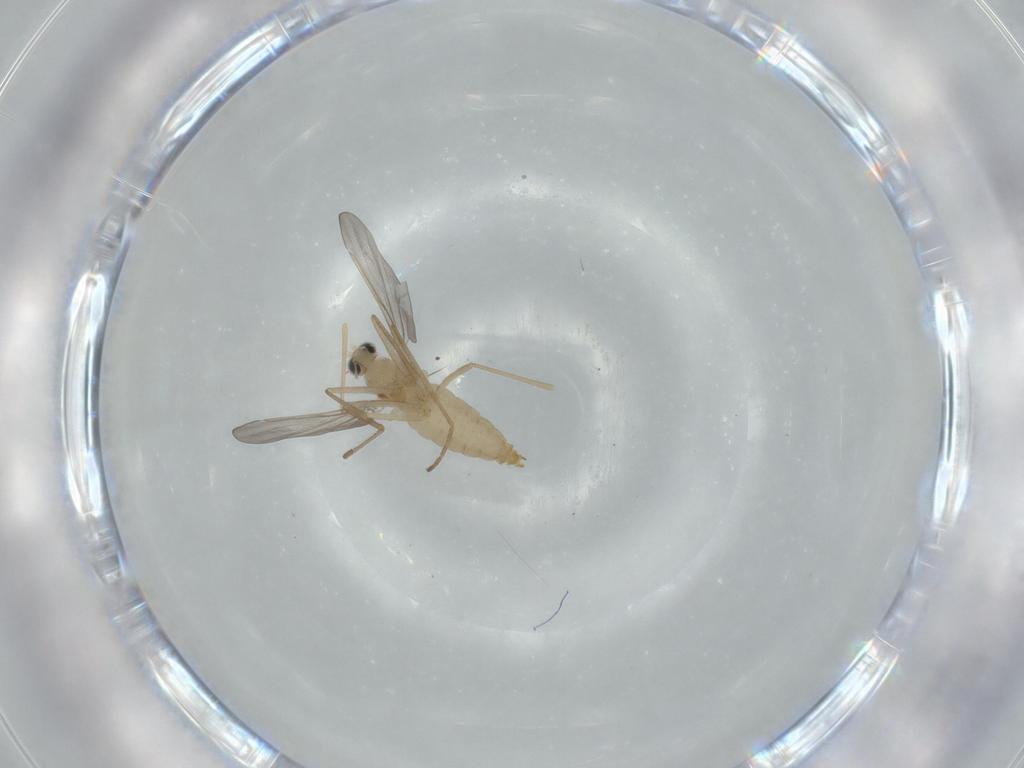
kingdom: Animalia
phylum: Arthropoda
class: Insecta
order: Diptera
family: Cecidomyiidae
